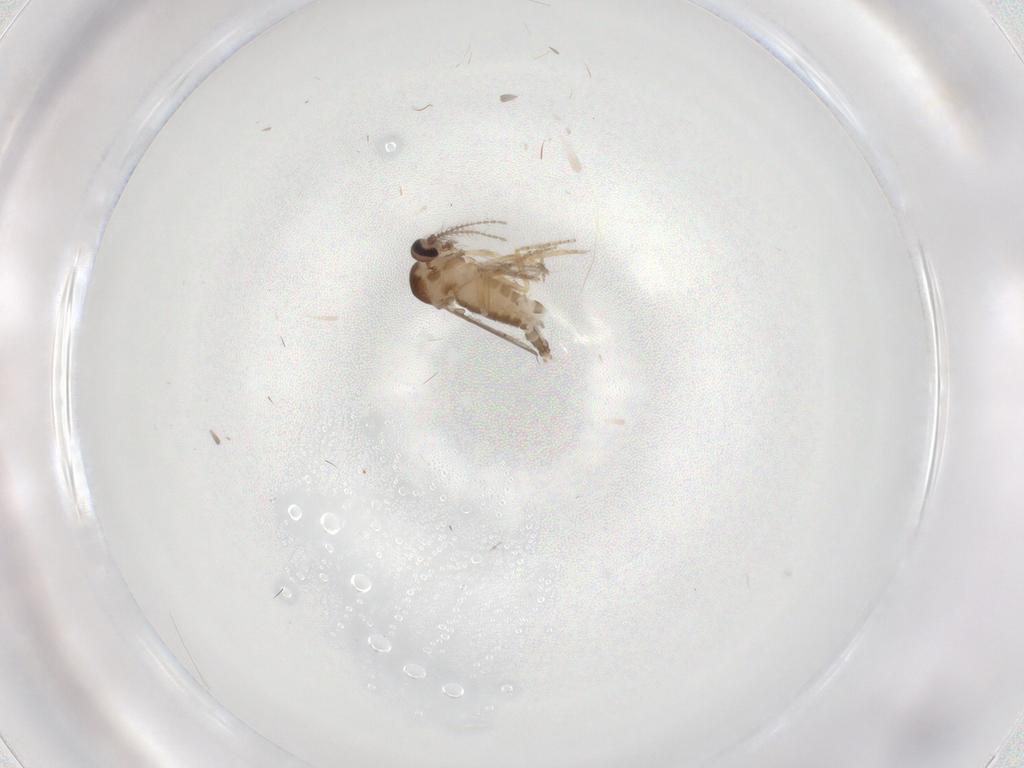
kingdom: Animalia
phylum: Arthropoda
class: Insecta
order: Diptera
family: Ceratopogonidae
